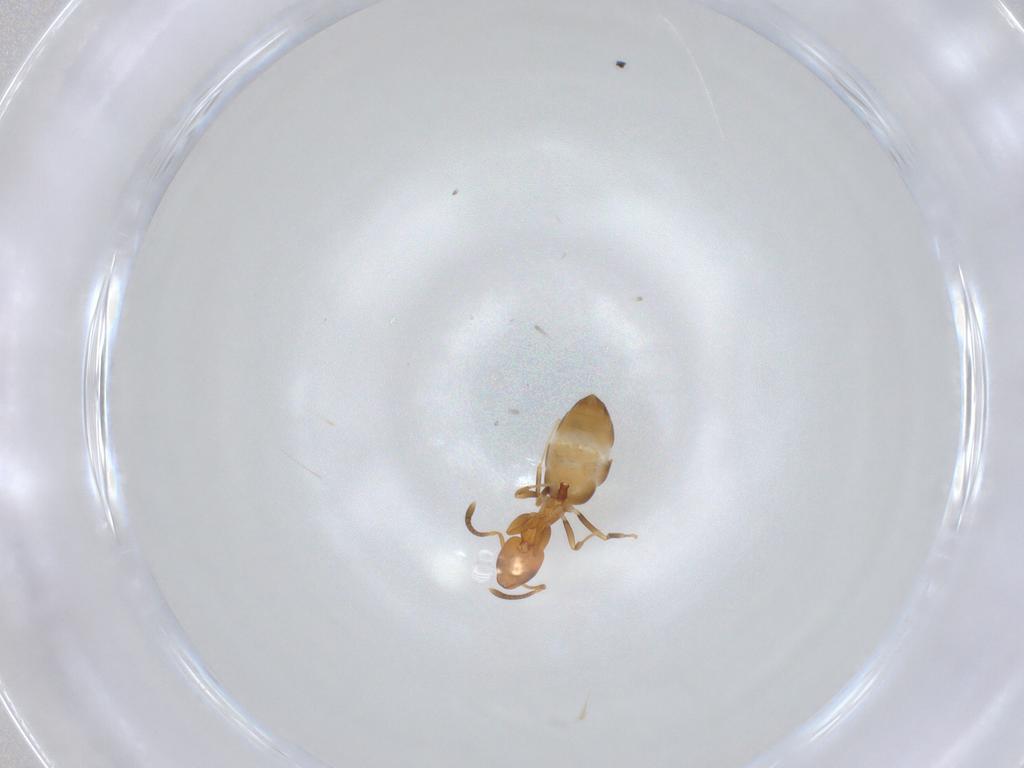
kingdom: Animalia
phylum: Arthropoda
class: Insecta
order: Hymenoptera
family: Formicidae
